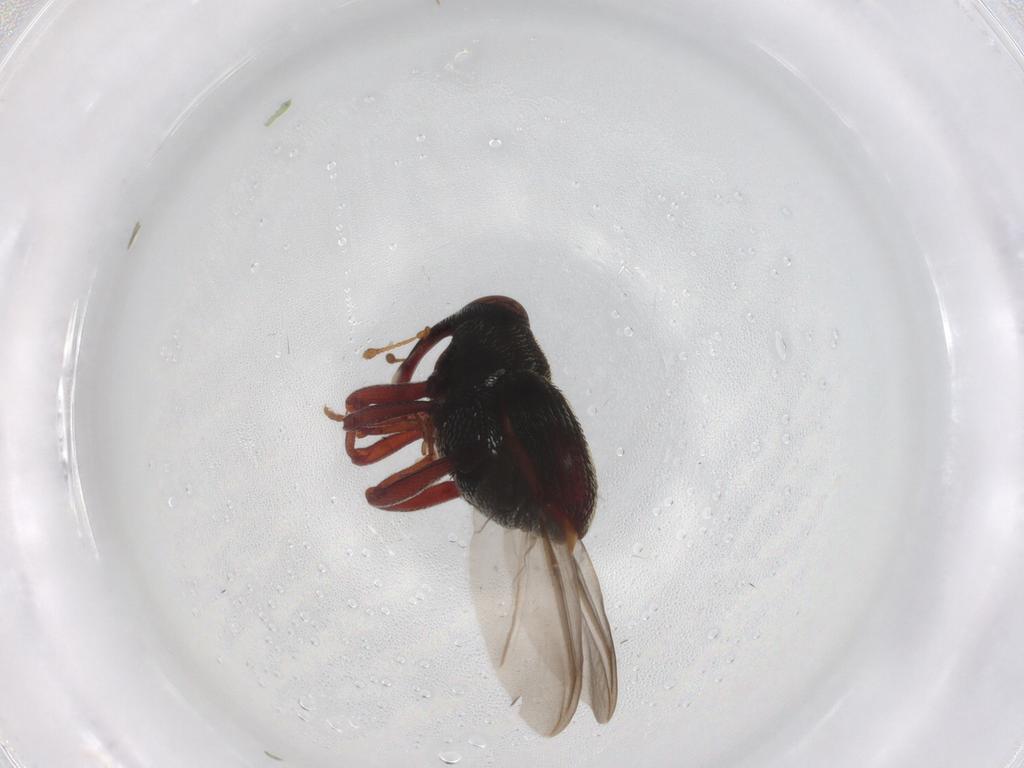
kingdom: Animalia
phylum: Arthropoda
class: Insecta
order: Coleoptera
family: Curculionidae
